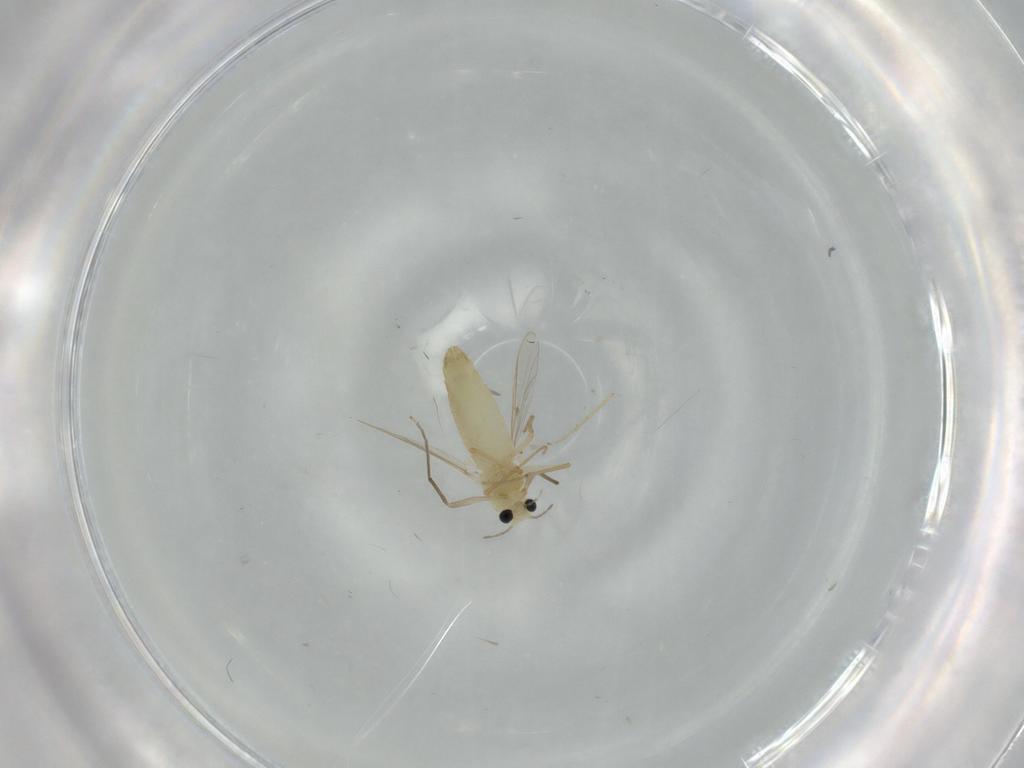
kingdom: Animalia
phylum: Arthropoda
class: Insecta
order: Diptera
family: Chironomidae
